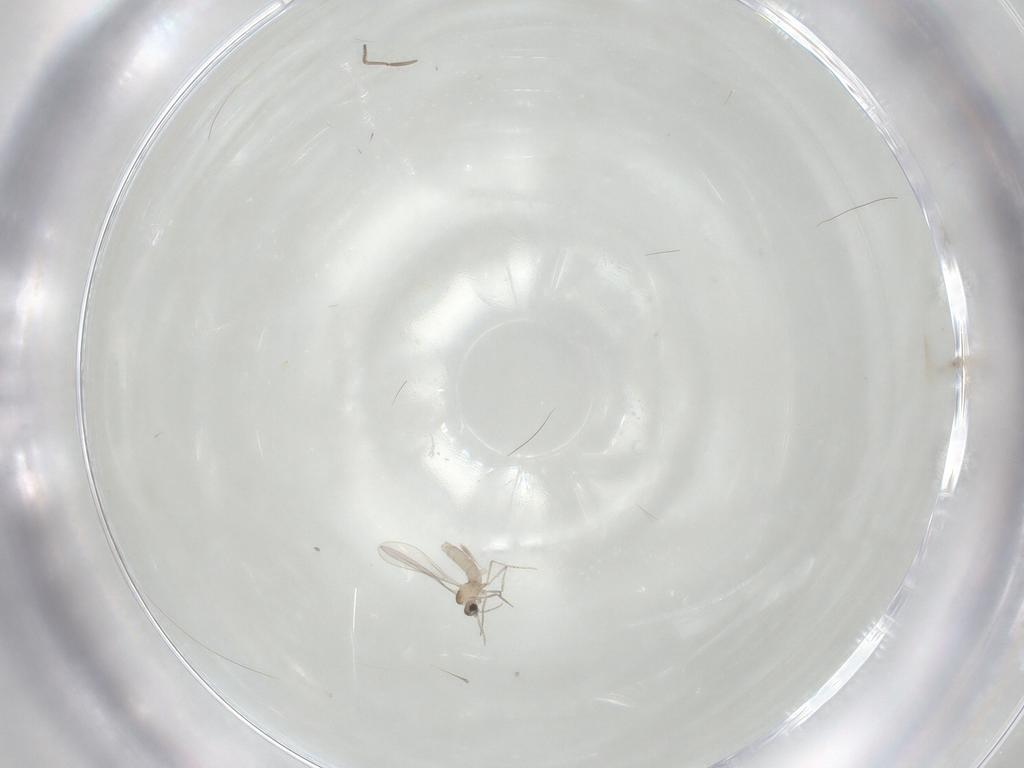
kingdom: Animalia
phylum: Arthropoda
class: Insecta
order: Diptera
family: Cecidomyiidae
